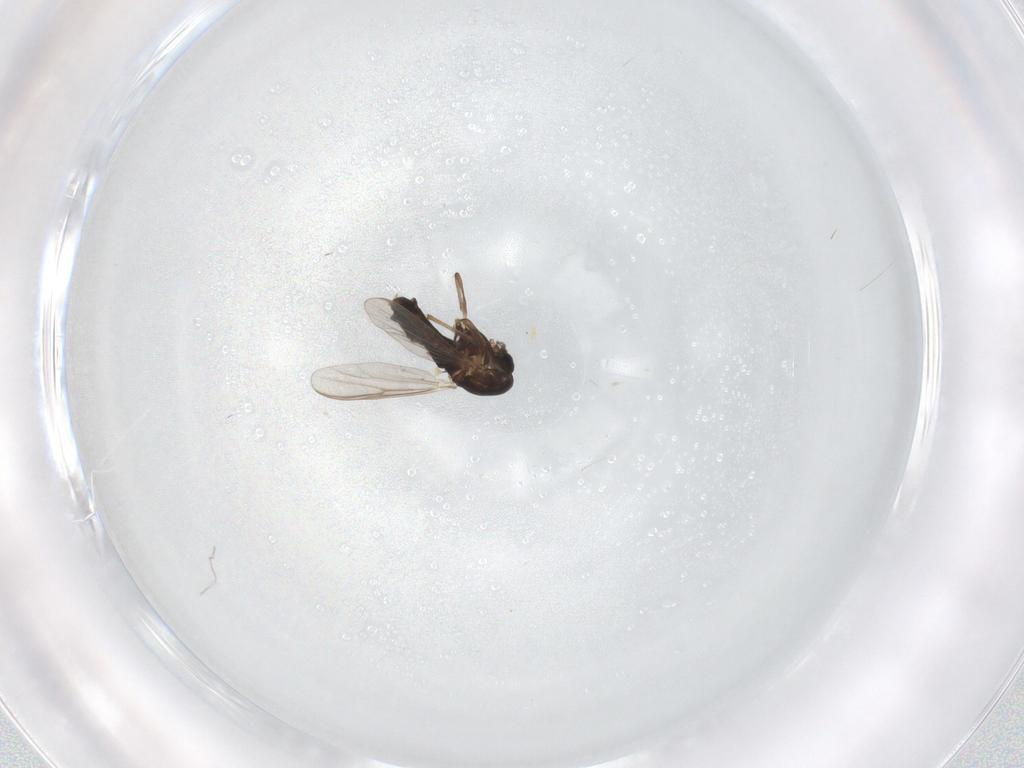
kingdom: Animalia
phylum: Arthropoda
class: Insecta
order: Diptera
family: Chironomidae
